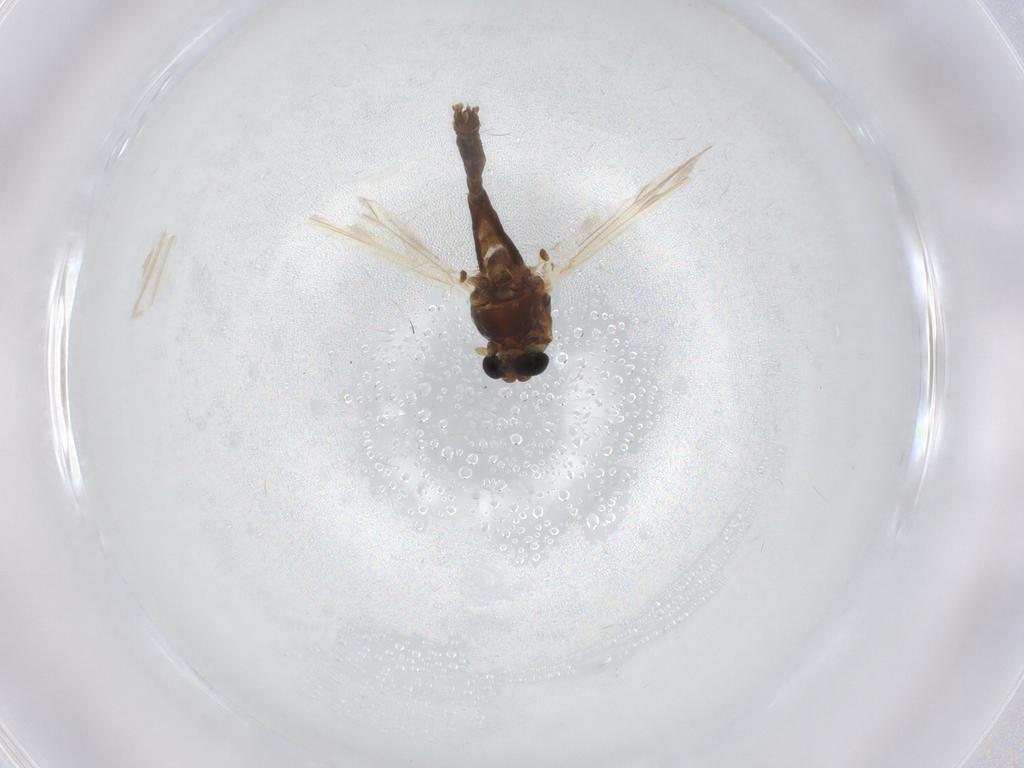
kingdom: Animalia
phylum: Arthropoda
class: Insecta
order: Diptera
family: Chironomidae
